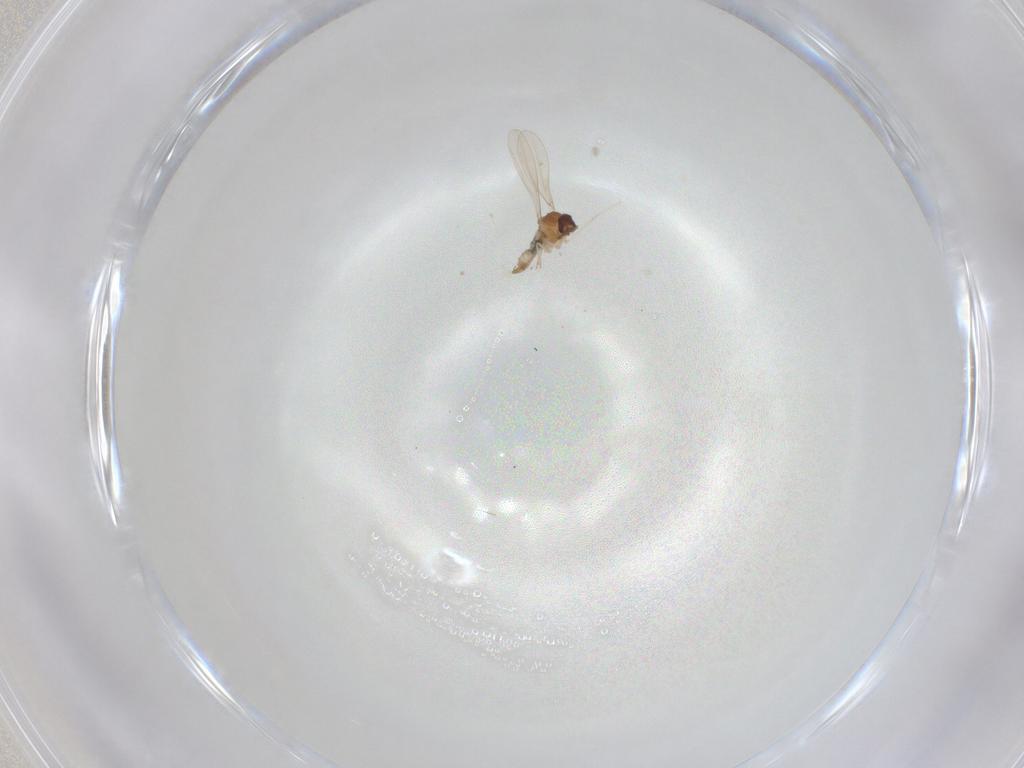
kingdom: Animalia
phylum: Arthropoda
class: Insecta
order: Diptera
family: Cecidomyiidae
